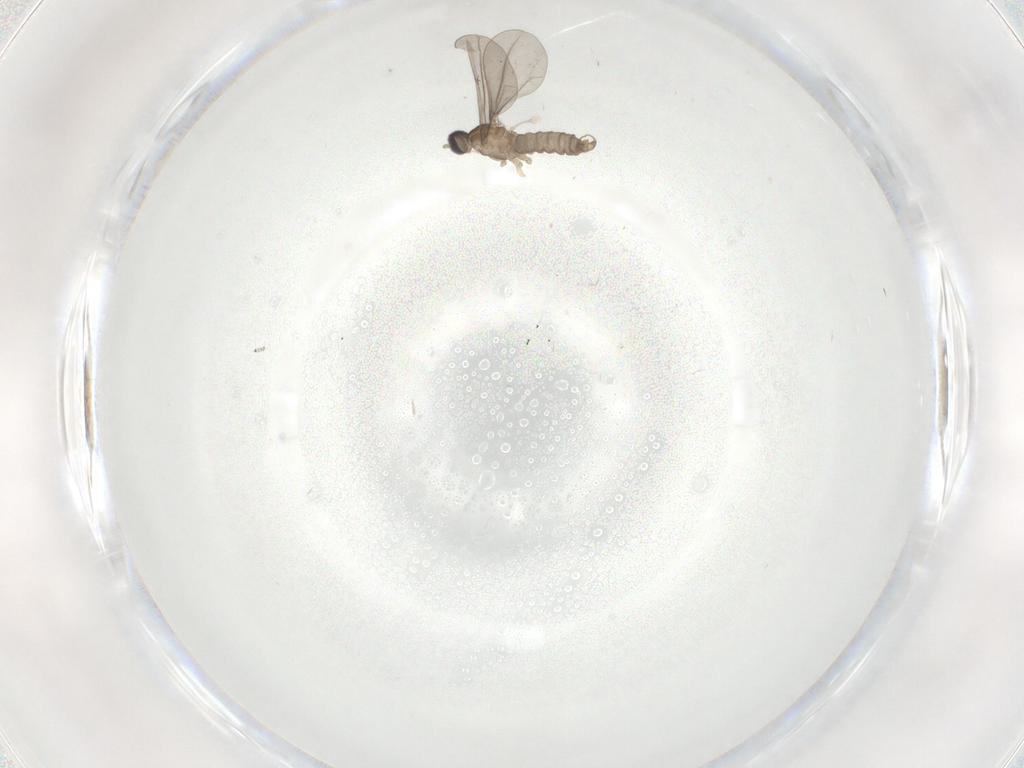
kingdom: Animalia
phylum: Arthropoda
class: Insecta
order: Diptera
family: Cecidomyiidae
